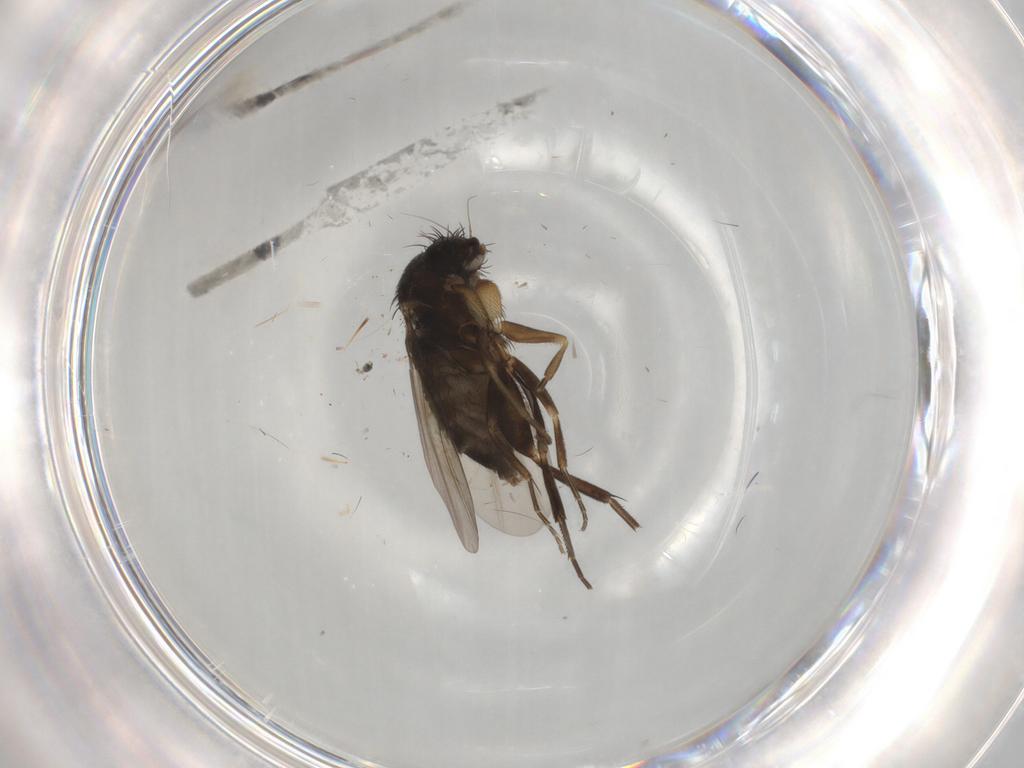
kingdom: Animalia
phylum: Arthropoda
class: Insecta
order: Diptera
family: Phoridae
